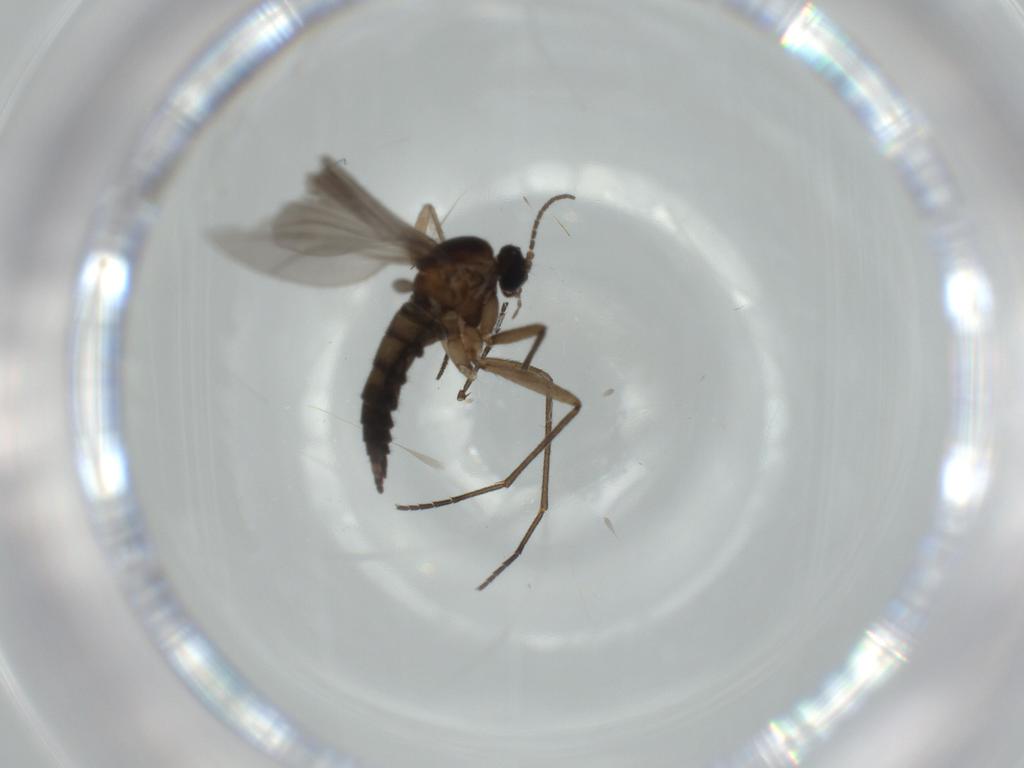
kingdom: Animalia
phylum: Arthropoda
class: Insecta
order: Diptera
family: Sciaridae
